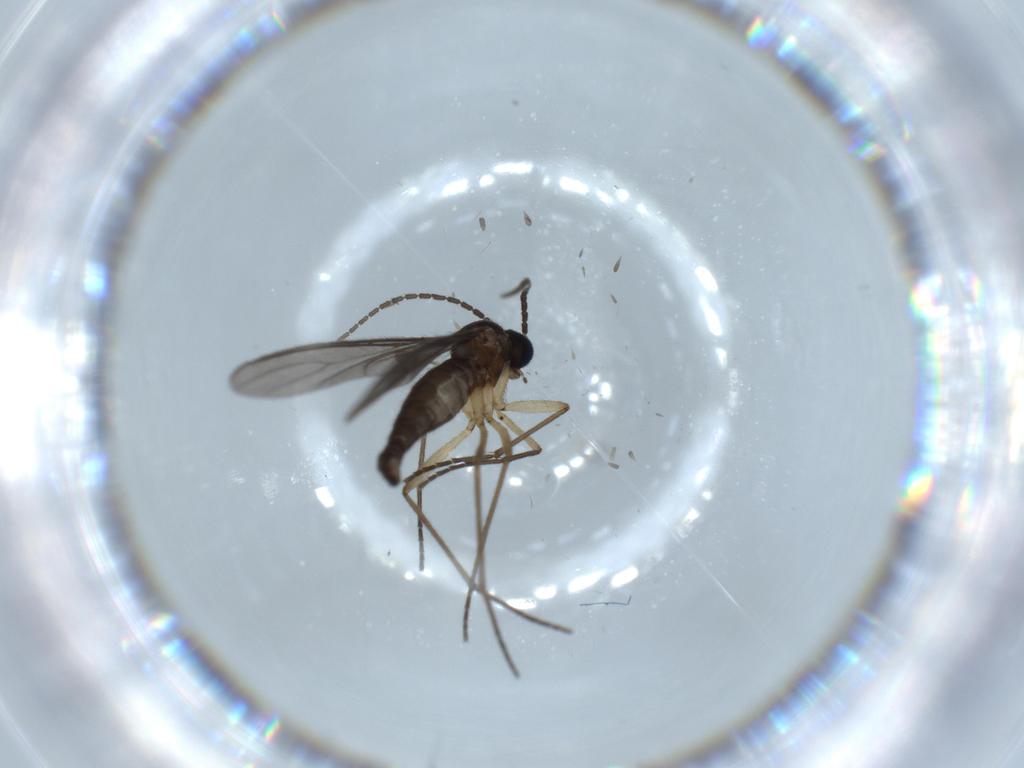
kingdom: Animalia
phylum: Arthropoda
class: Insecta
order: Diptera
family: Sciaridae
